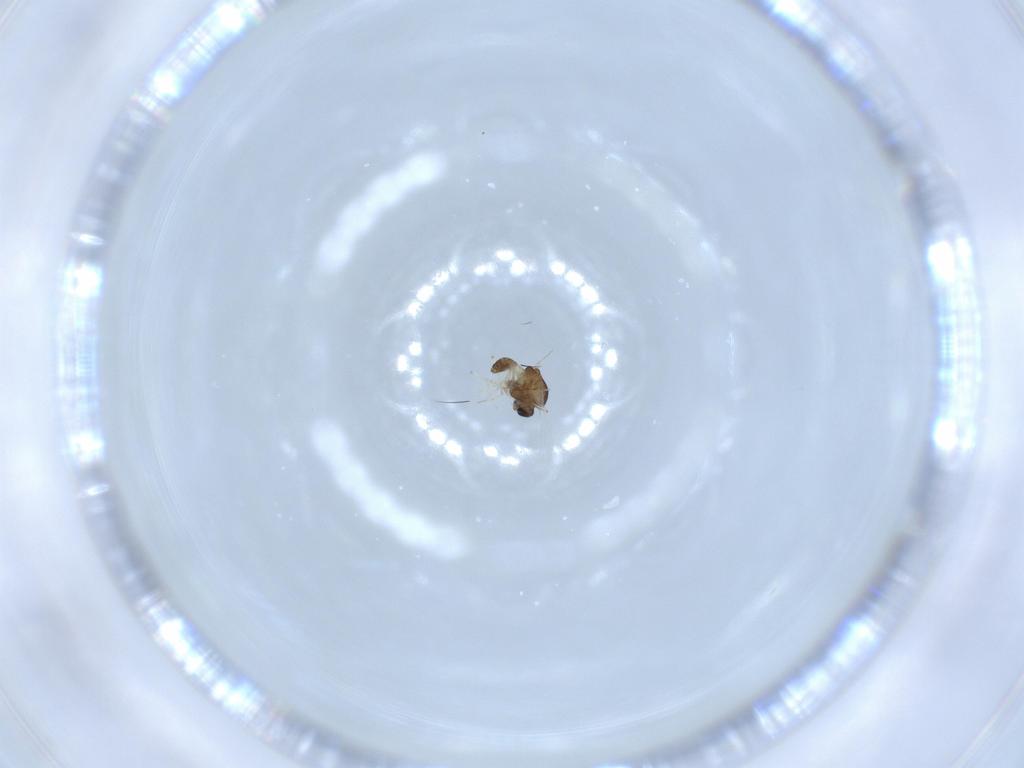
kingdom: Animalia
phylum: Arthropoda
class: Insecta
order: Diptera
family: Chironomidae
